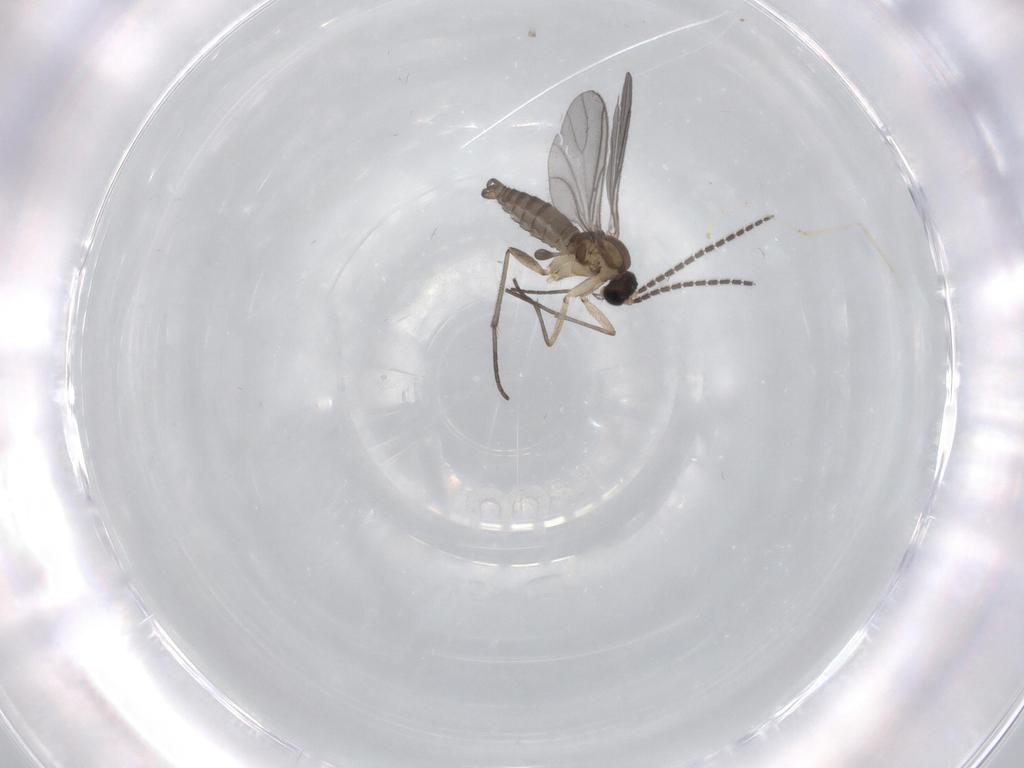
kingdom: Animalia
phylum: Arthropoda
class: Insecta
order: Diptera
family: Cecidomyiidae
